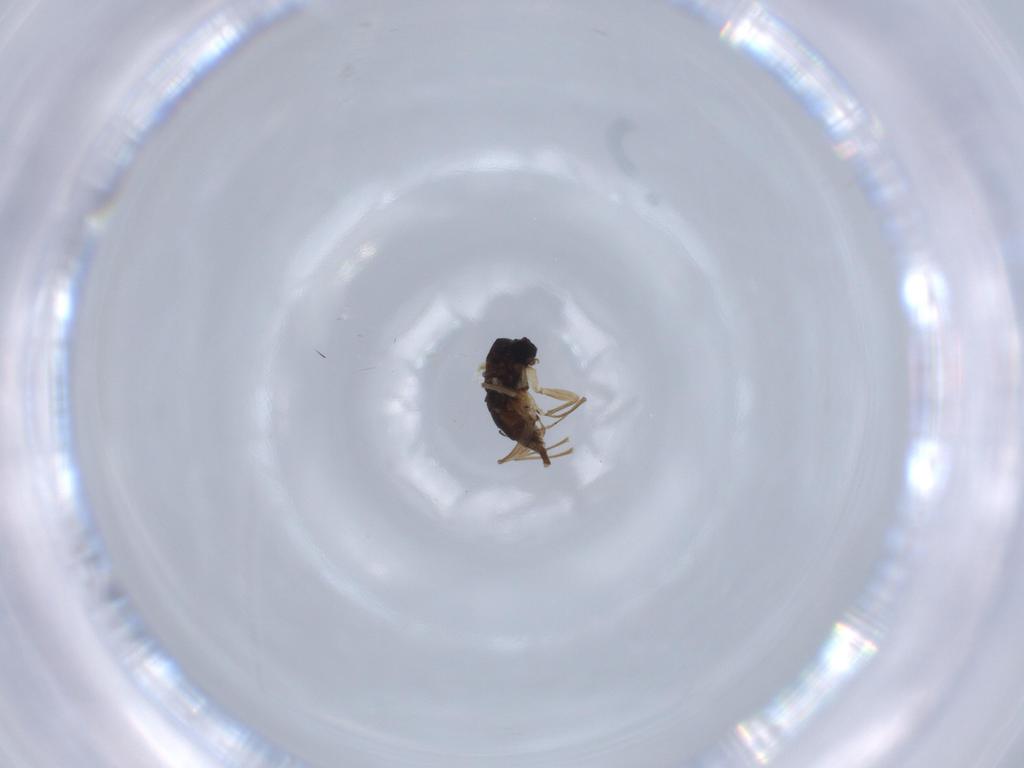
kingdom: Animalia
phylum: Arthropoda
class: Insecta
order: Diptera
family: Sciaridae
